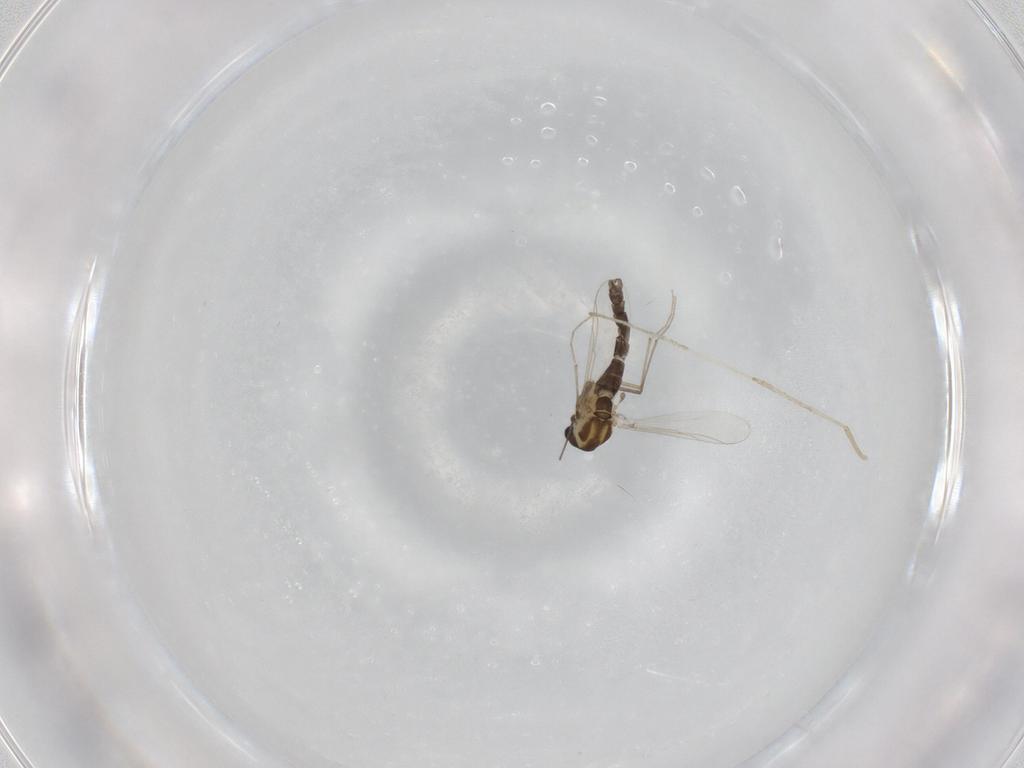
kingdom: Animalia
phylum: Arthropoda
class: Insecta
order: Diptera
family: Chironomidae
